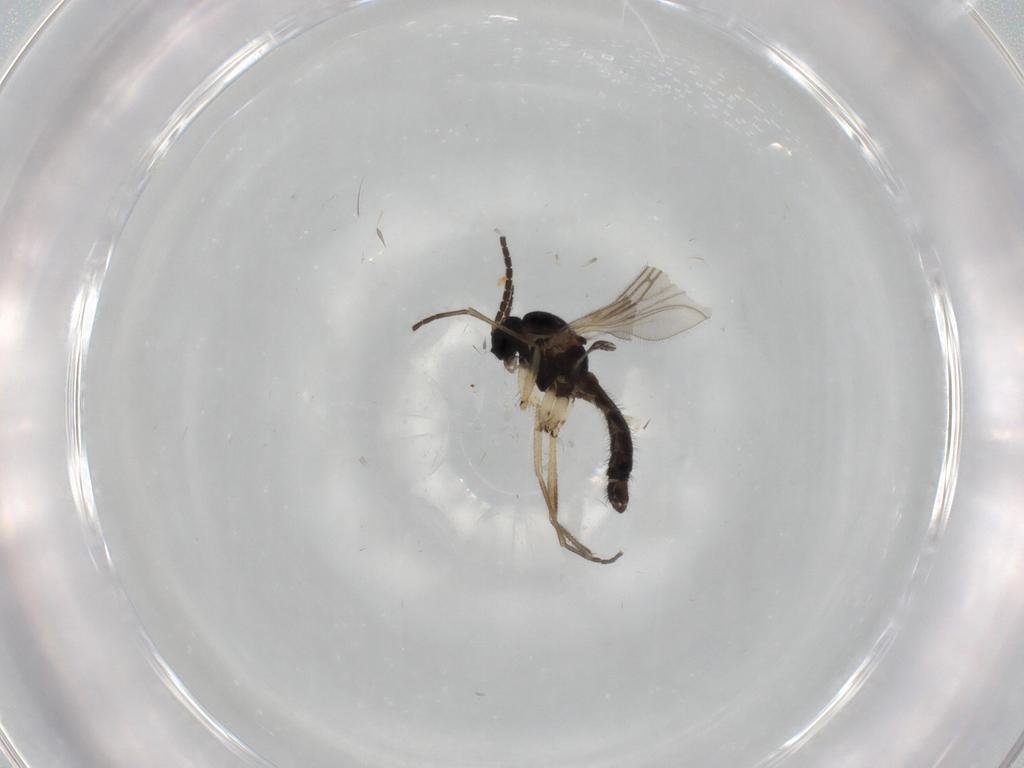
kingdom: Animalia
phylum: Arthropoda
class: Insecta
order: Diptera
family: Sciaridae
